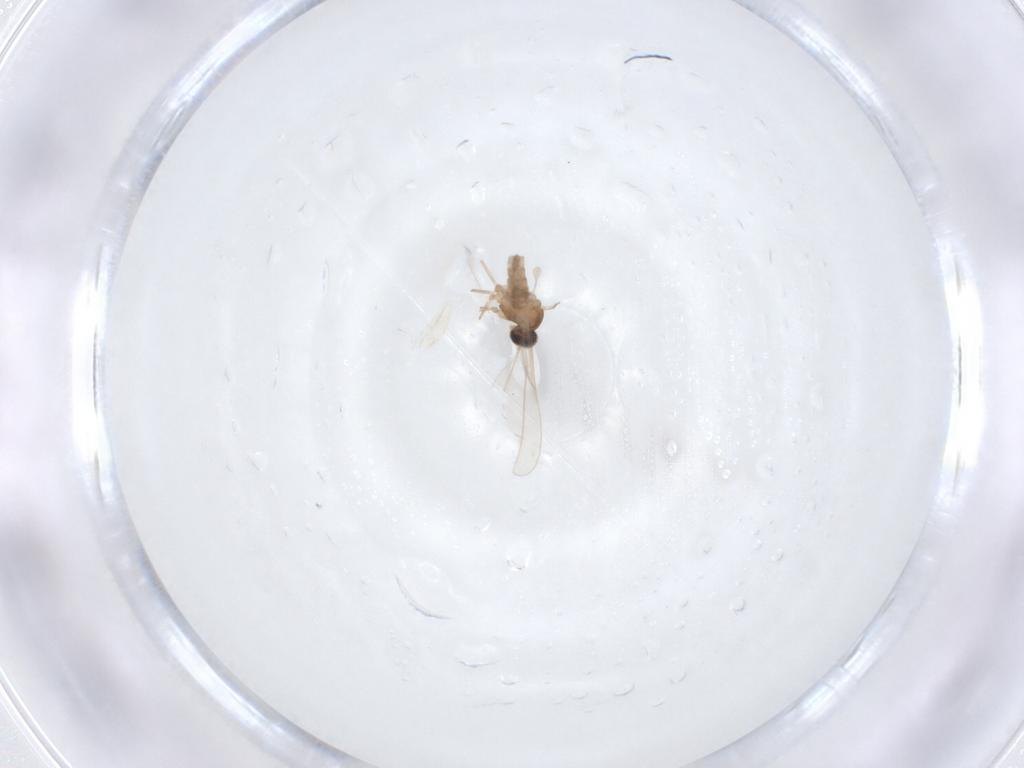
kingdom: Animalia
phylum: Arthropoda
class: Insecta
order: Diptera
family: Cecidomyiidae
